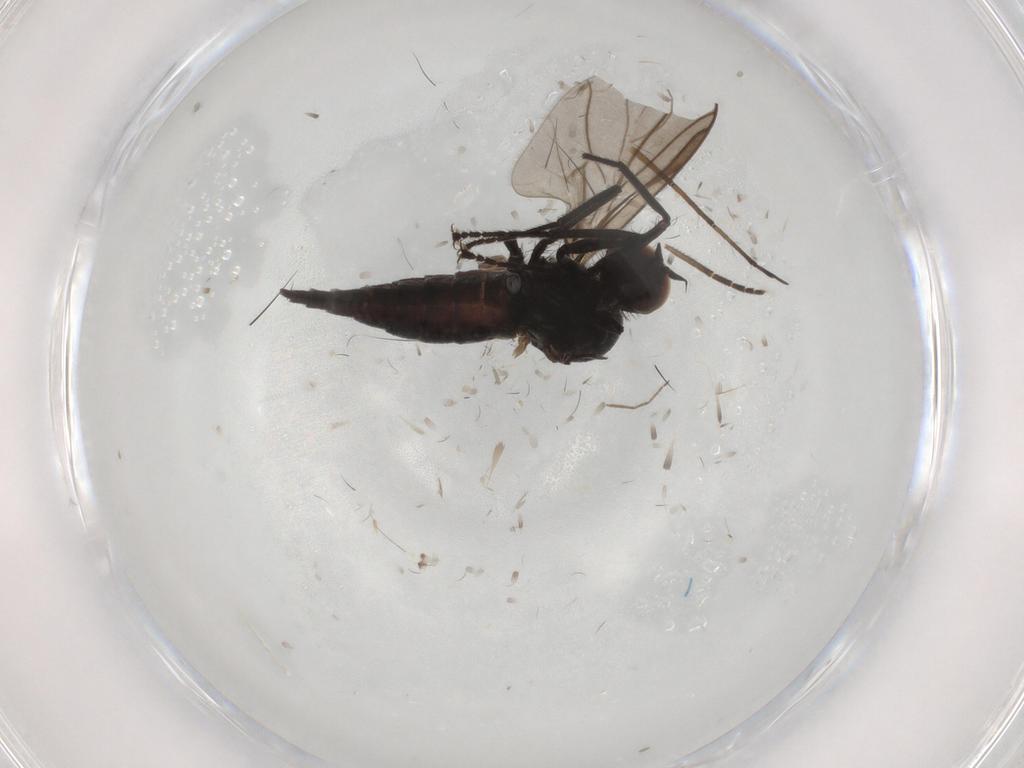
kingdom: Animalia
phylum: Arthropoda
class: Insecta
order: Diptera
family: Hybotidae
